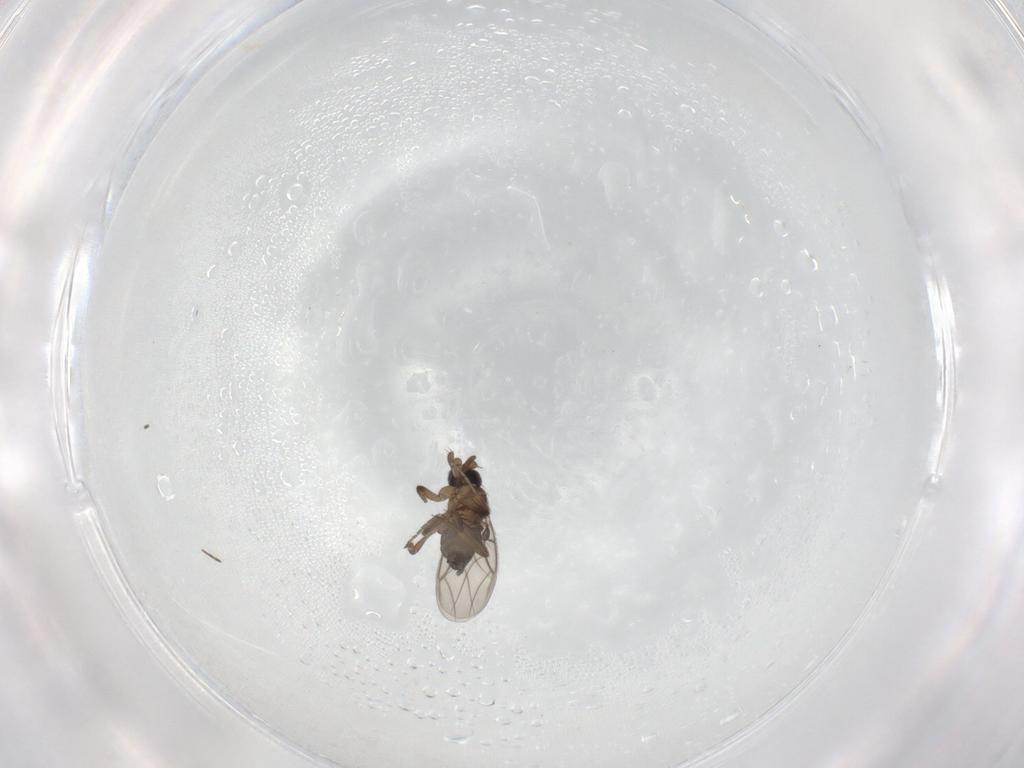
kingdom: Animalia
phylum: Arthropoda
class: Insecta
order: Diptera
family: Phoridae
